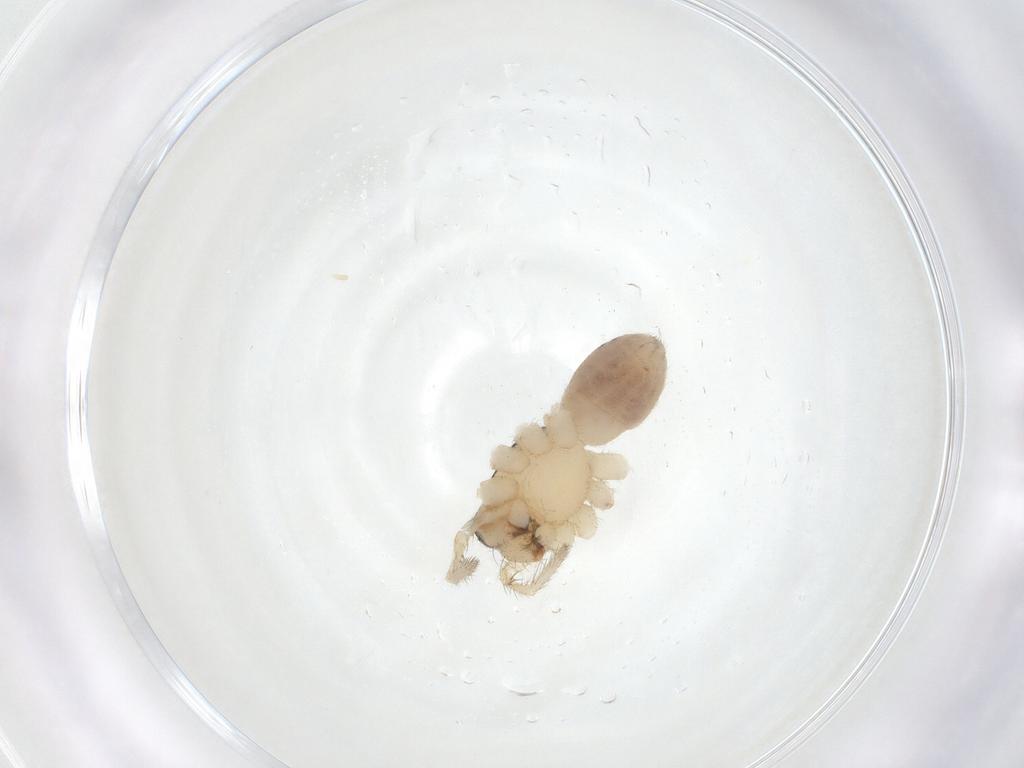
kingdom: Animalia
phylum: Arthropoda
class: Arachnida
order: Araneae
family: Corinnidae
